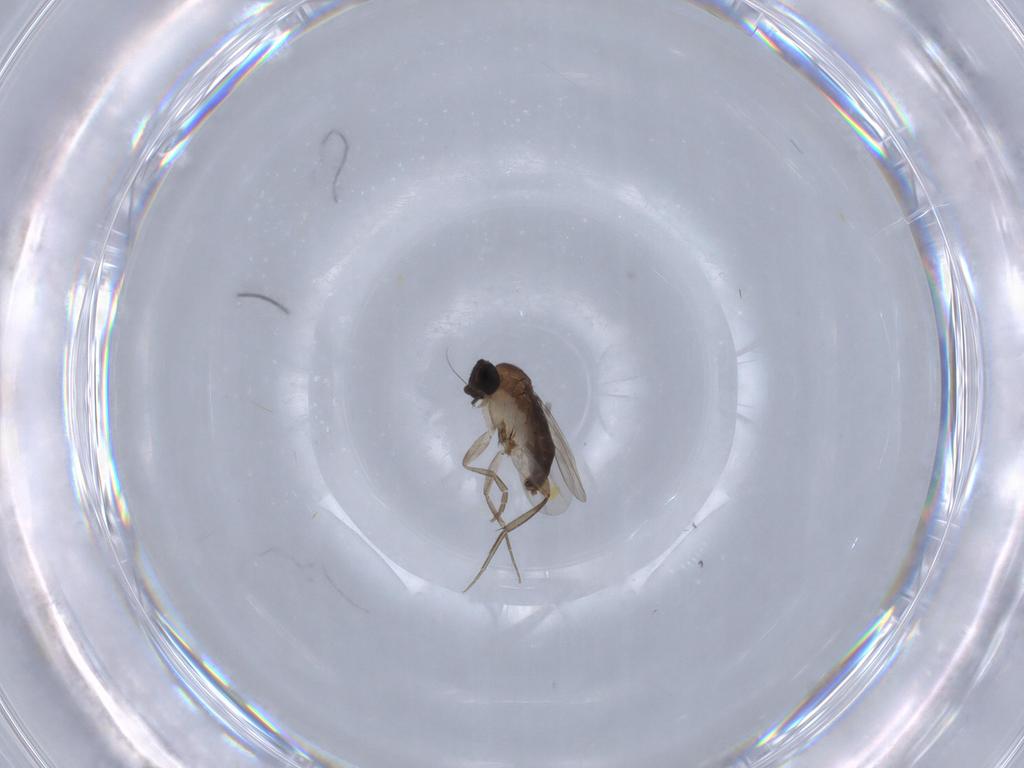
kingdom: Animalia
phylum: Arthropoda
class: Insecta
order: Diptera
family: Phoridae
